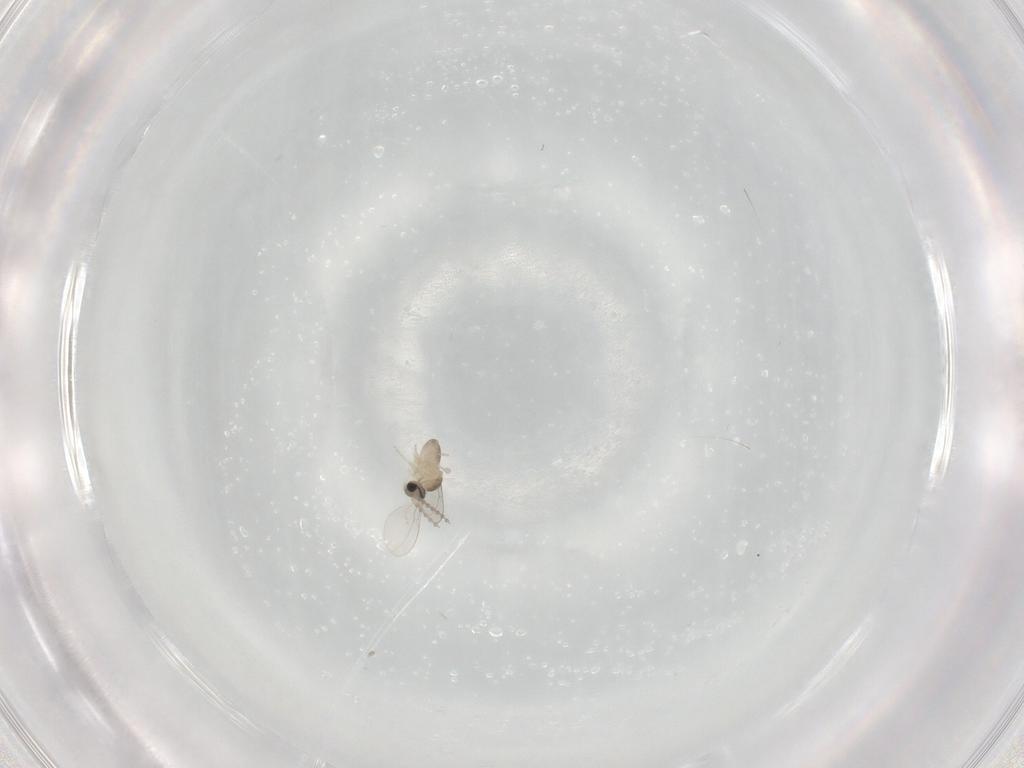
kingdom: Animalia
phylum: Arthropoda
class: Insecta
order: Diptera
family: Cecidomyiidae
